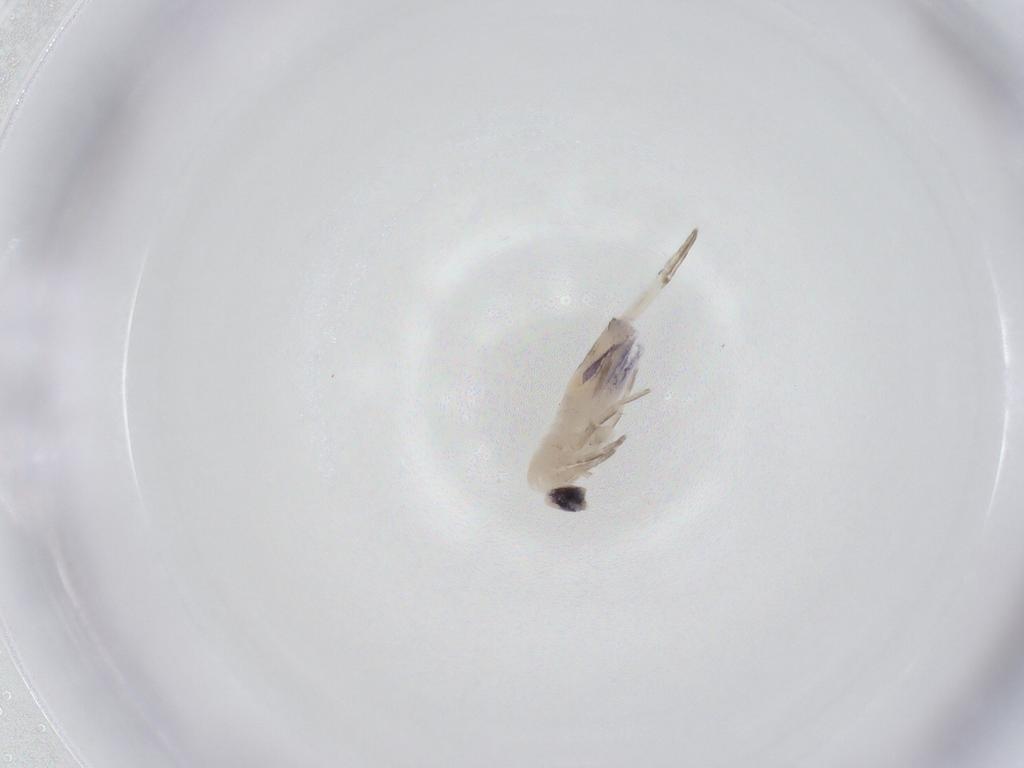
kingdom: Animalia
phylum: Arthropoda
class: Collembola
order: Entomobryomorpha
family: Entomobryidae
